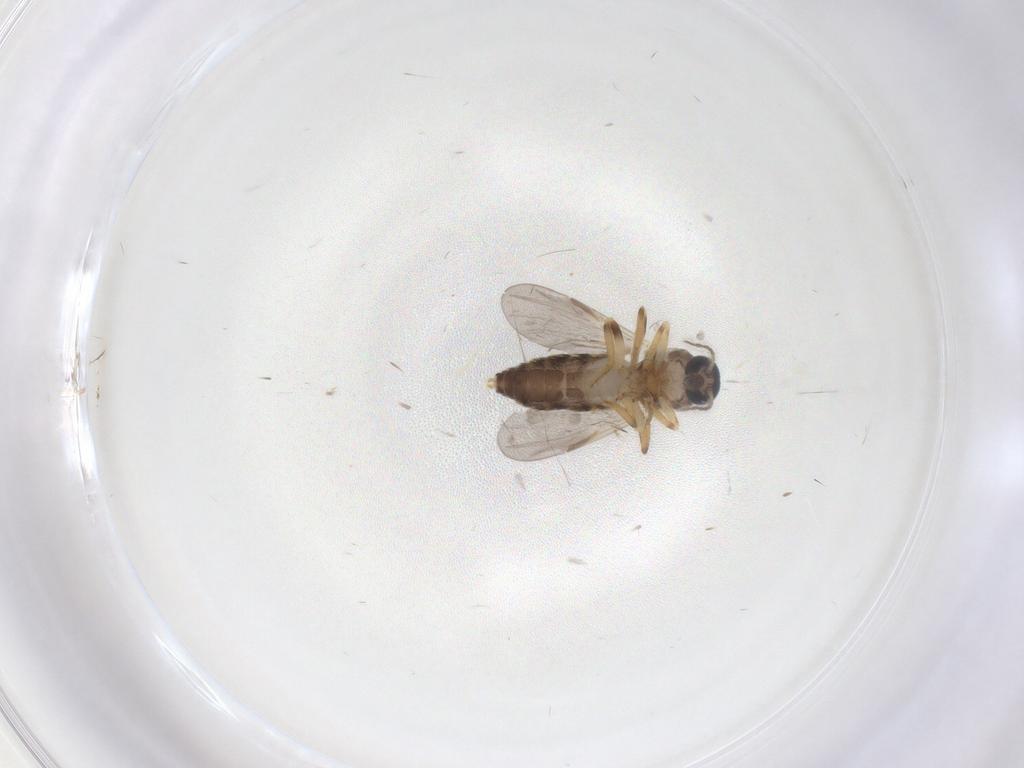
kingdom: Animalia
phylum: Arthropoda
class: Insecta
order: Diptera
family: Ceratopogonidae
